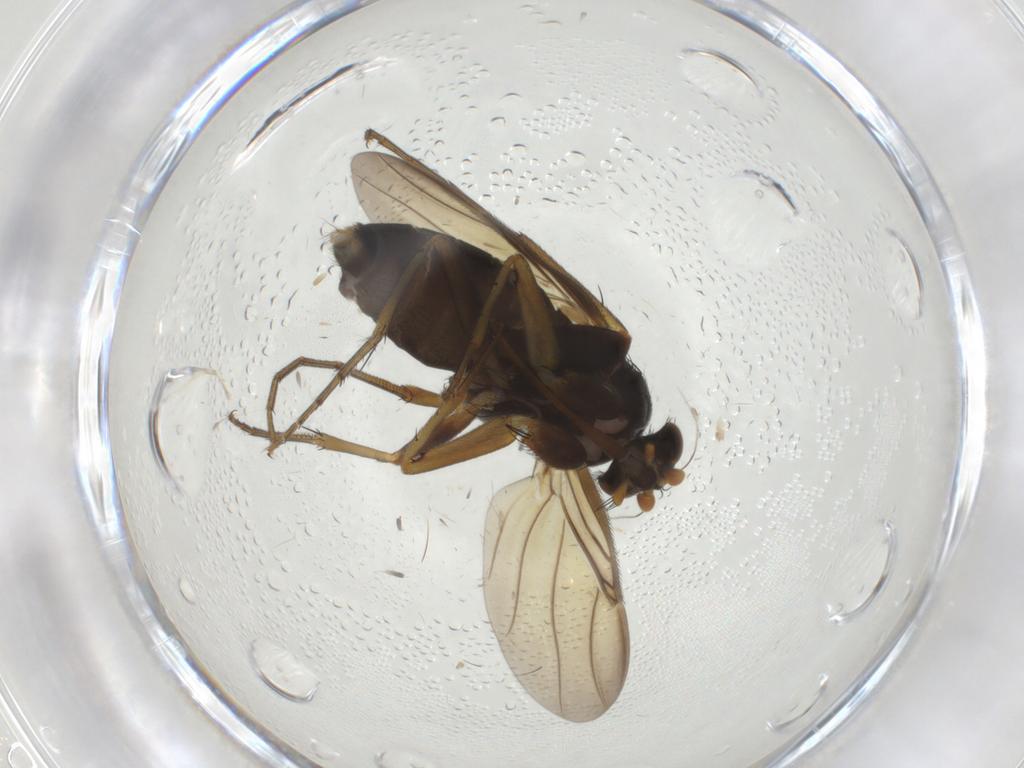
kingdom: Animalia
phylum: Arthropoda
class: Insecta
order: Diptera
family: Phoridae
